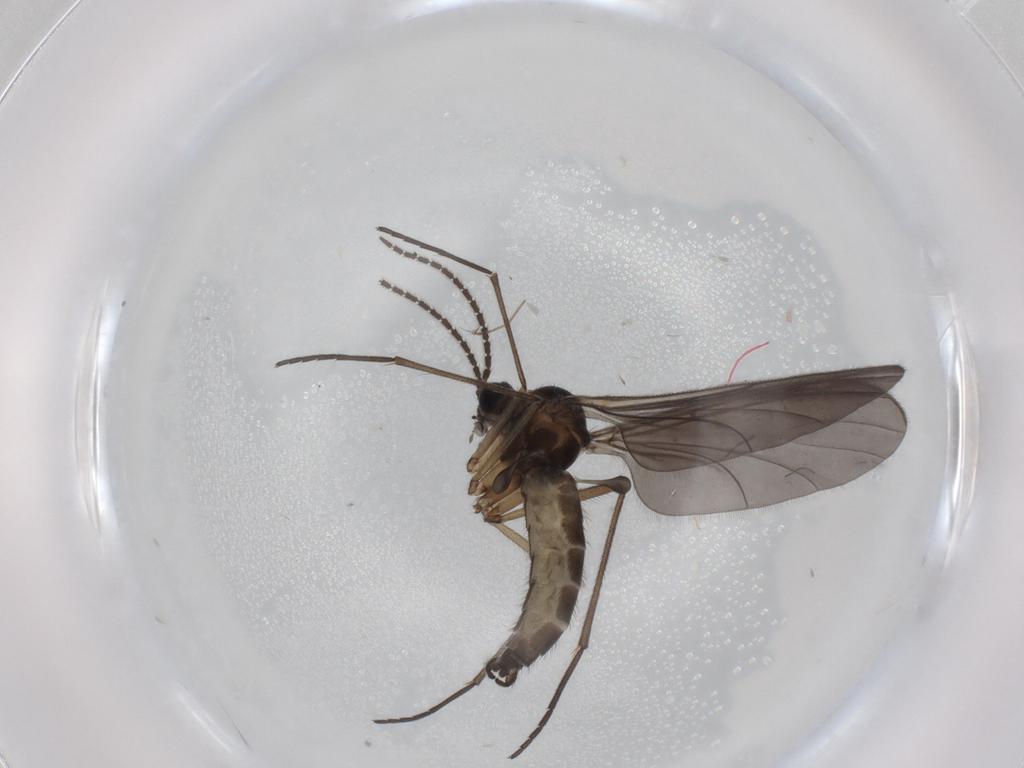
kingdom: Animalia
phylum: Arthropoda
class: Insecta
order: Diptera
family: Sciaridae
